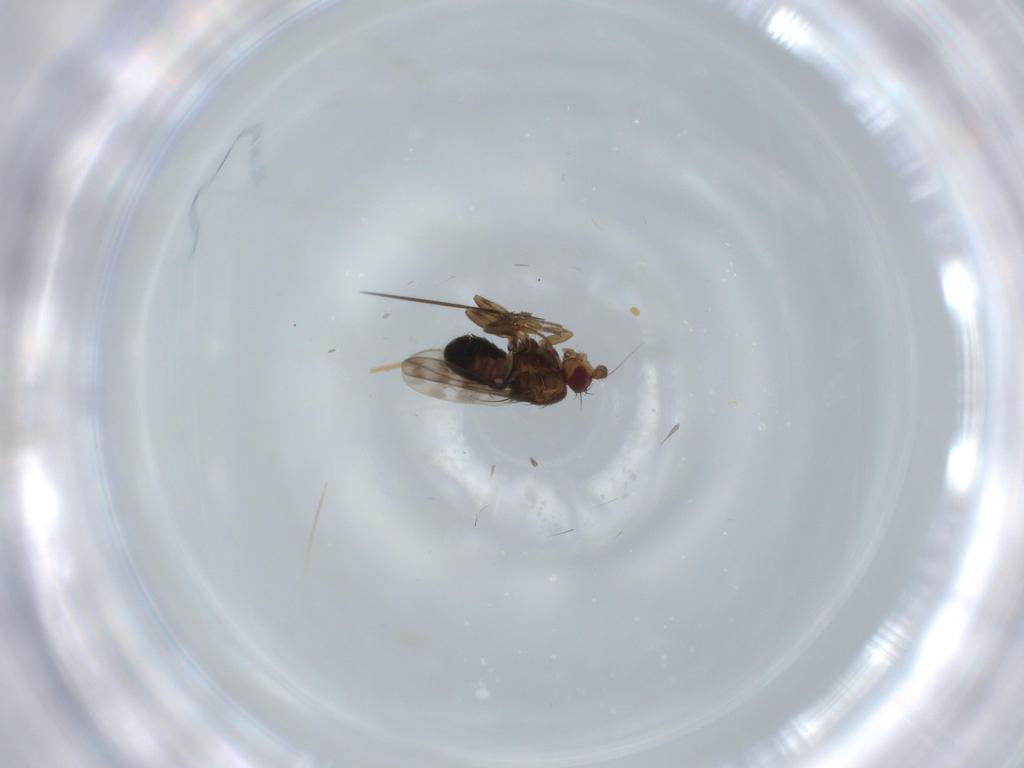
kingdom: Animalia
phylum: Arthropoda
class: Insecta
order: Diptera
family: Sphaeroceridae
